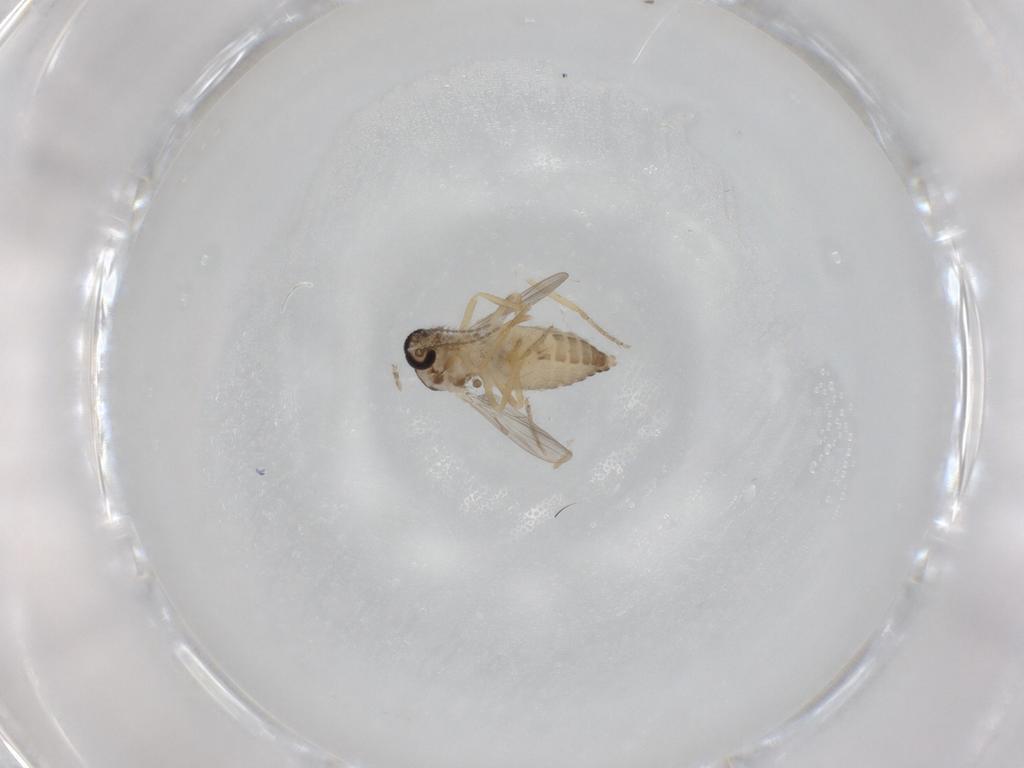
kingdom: Animalia
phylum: Arthropoda
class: Insecta
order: Diptera
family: Ceratopogonidae
